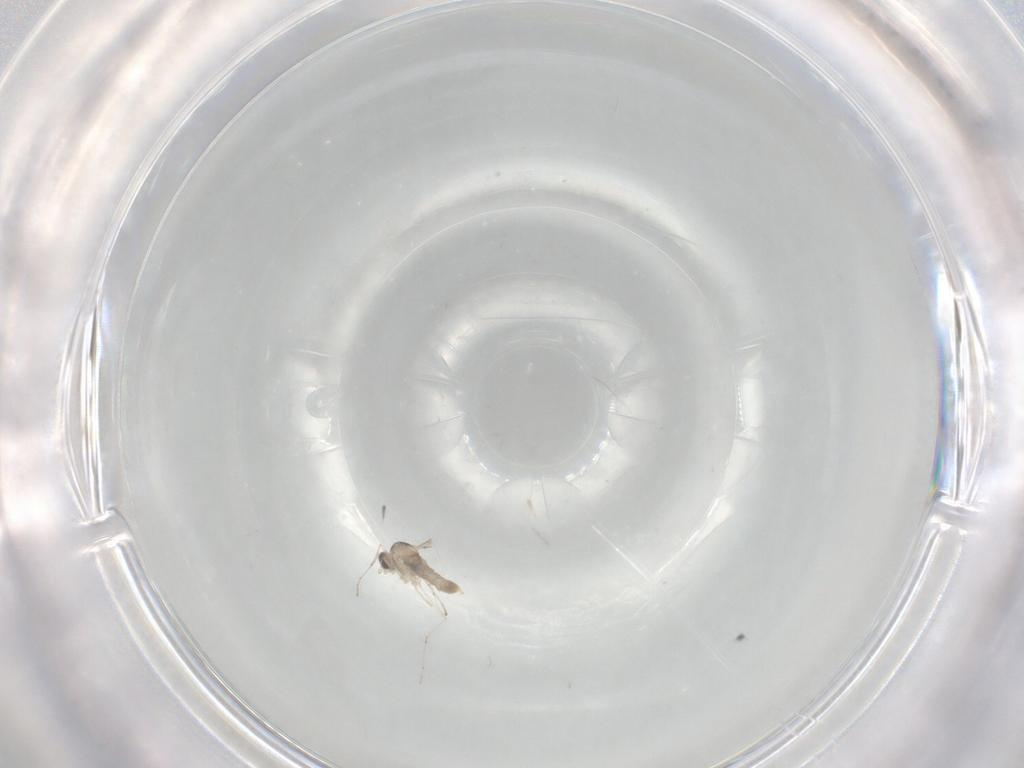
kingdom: Animalia
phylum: Arthropoda
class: Insecta
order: Diptera
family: Cecidomyiidae
